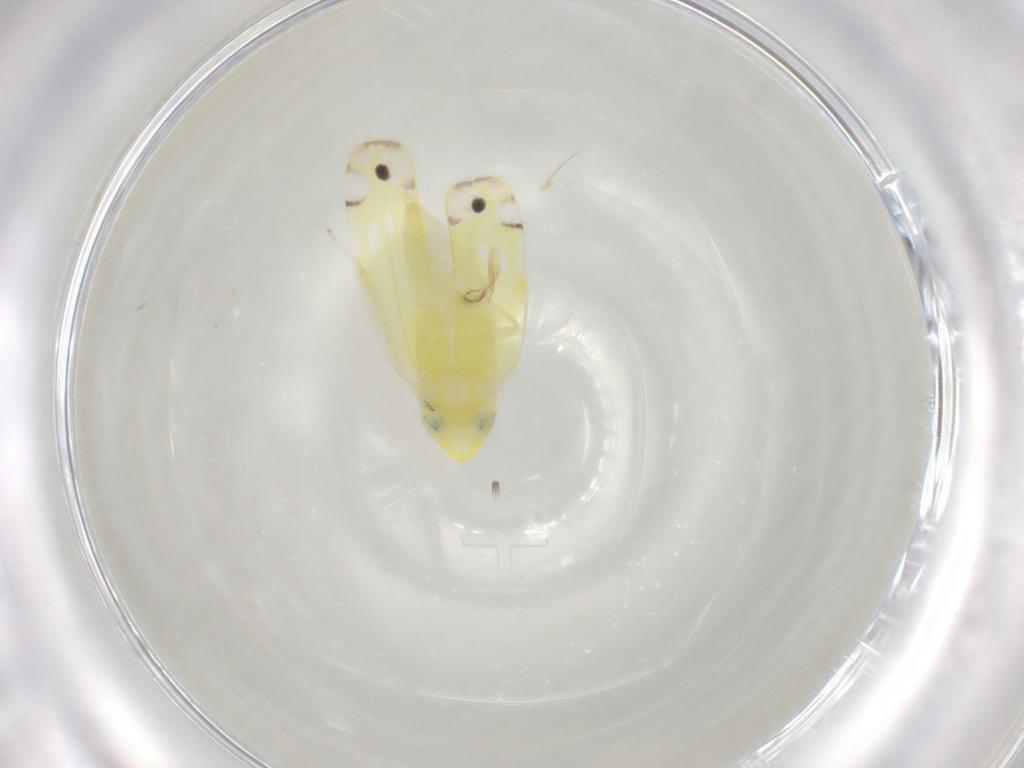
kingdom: Animalia
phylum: Arthropoda
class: Insecta
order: Hemiptera
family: Cicadellidae
